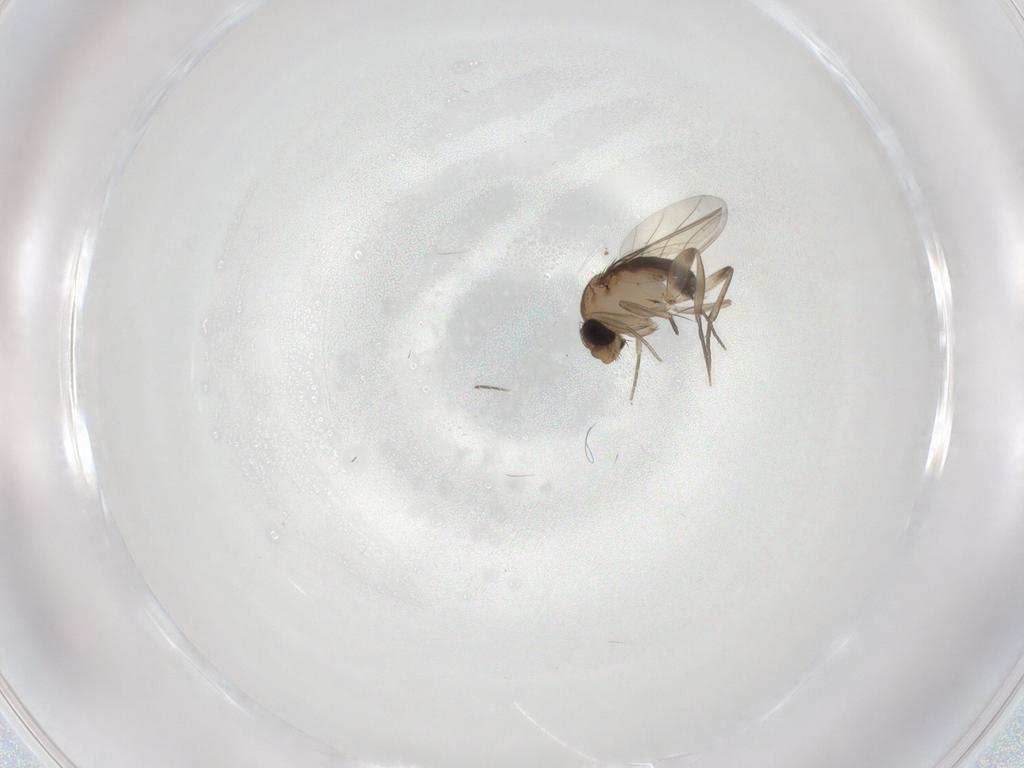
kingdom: Animalia
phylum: Arthropoda
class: Insecta
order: Diptera
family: Phoridae
